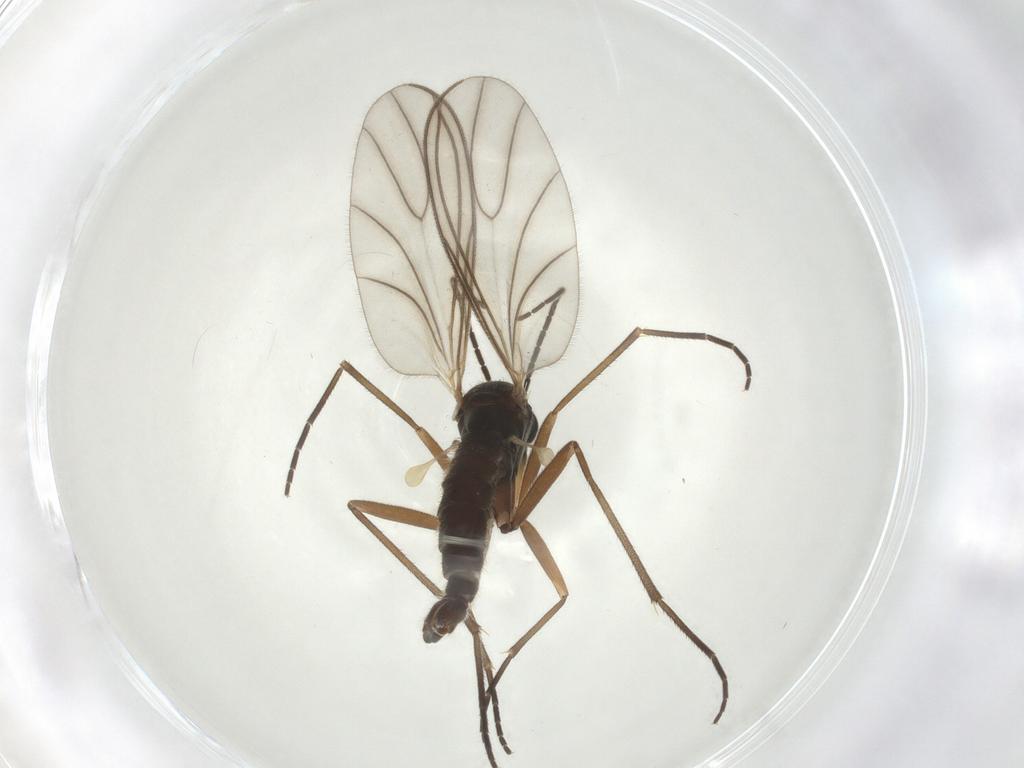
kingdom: Animalia
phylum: Arthropoda
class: Insecta
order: Diptera
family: Sciaridae
